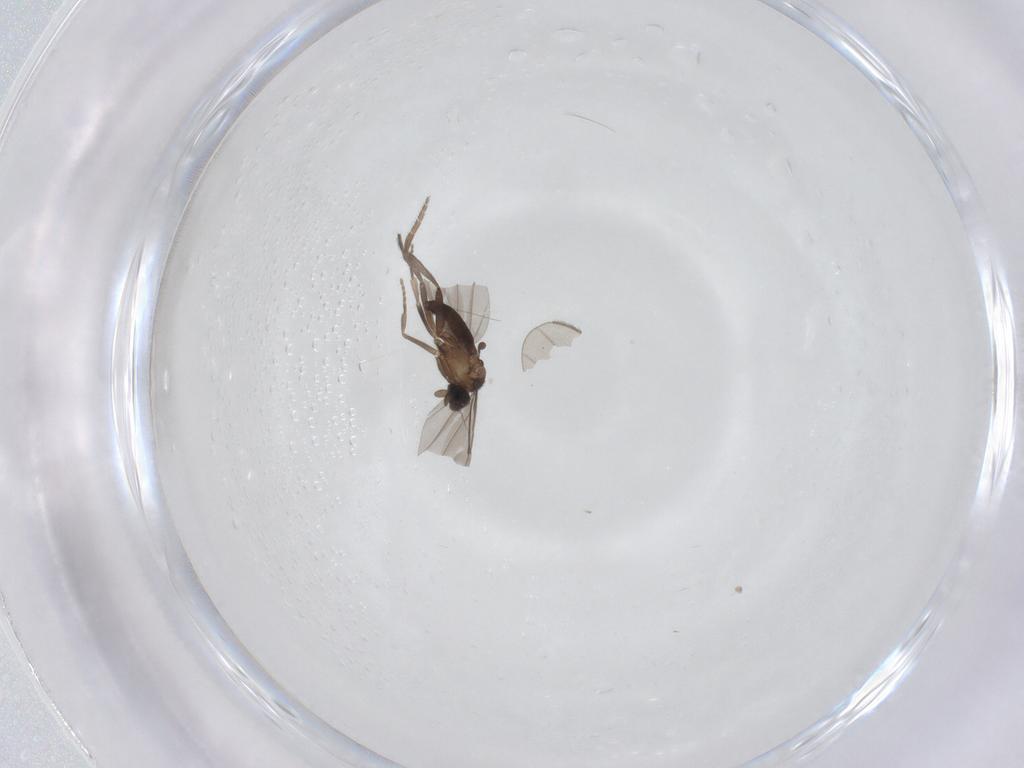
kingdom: Animalia
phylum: Arthropoda
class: Insecta
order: Diptera
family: Phoridae
